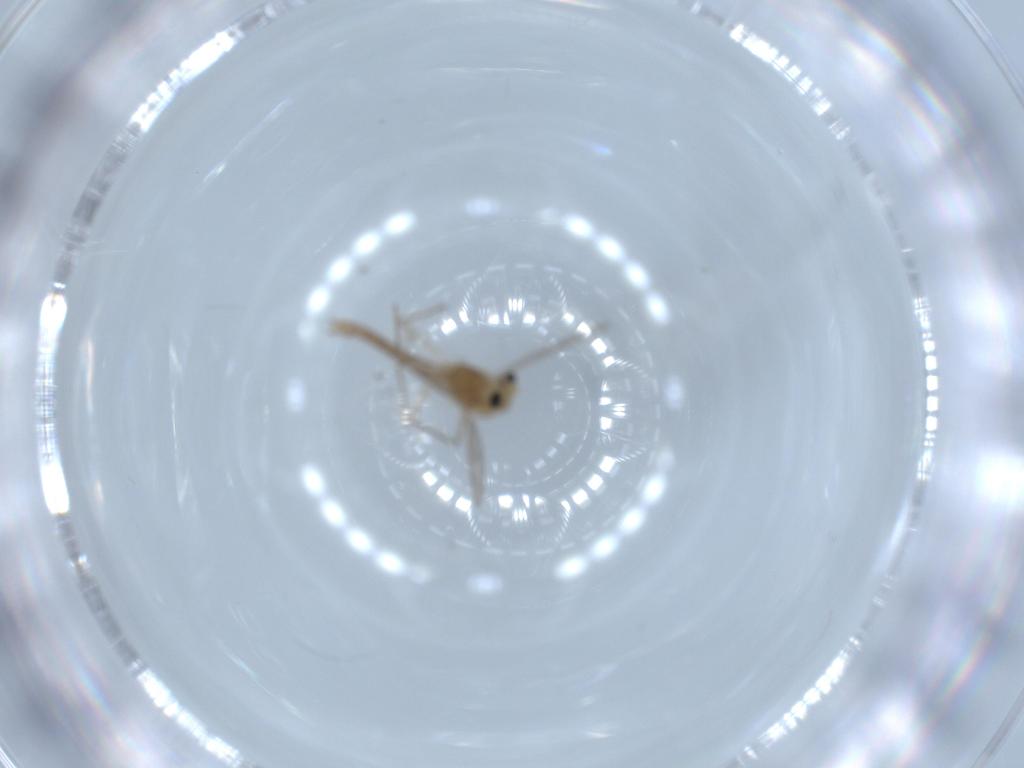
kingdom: Animalia
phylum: Arthropoda
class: Insecta
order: Diptera
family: Chironomidae
